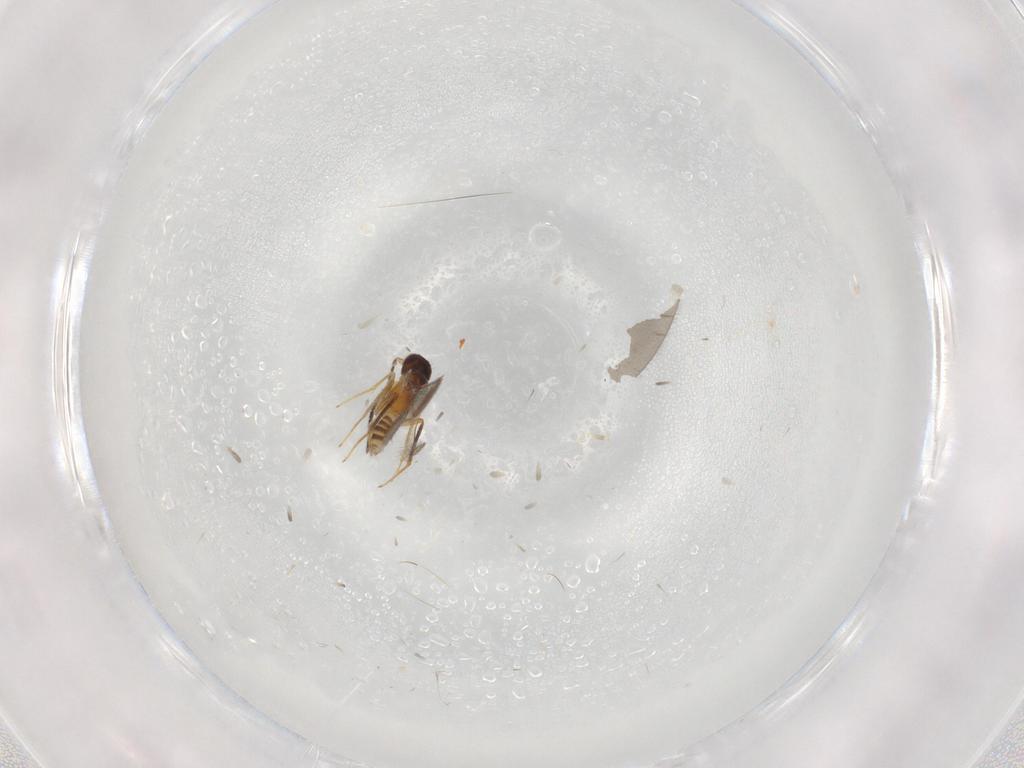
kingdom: Animalia
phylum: Arthropoda
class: Insecta
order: Hymenoptera
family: Mymaridae
